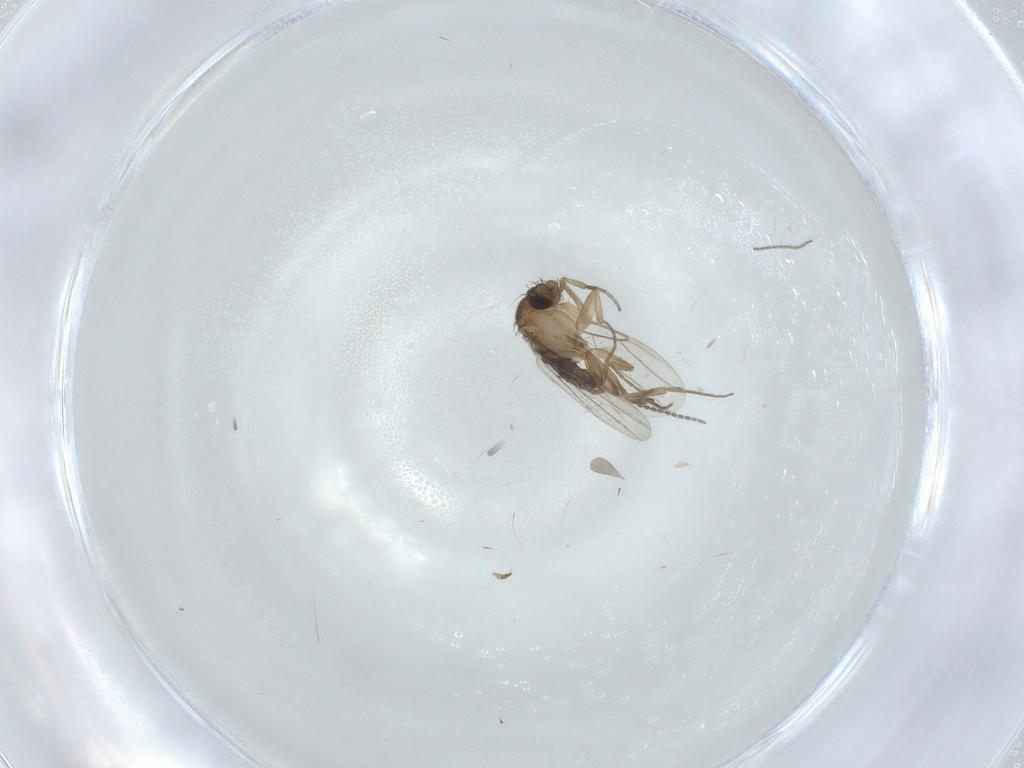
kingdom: Animalia
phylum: Arthropoda
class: Insecta
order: Diptera
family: Phoridae
